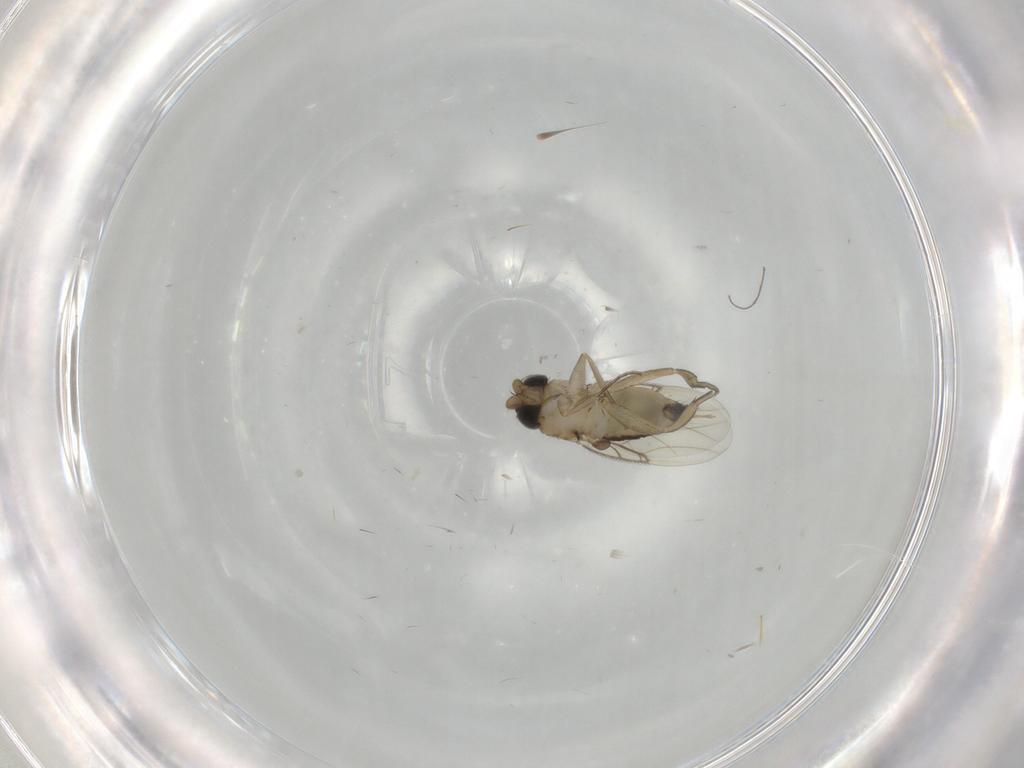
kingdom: Animalia
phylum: Arthropoda
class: Insecta
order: Diptera
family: Phoridae
